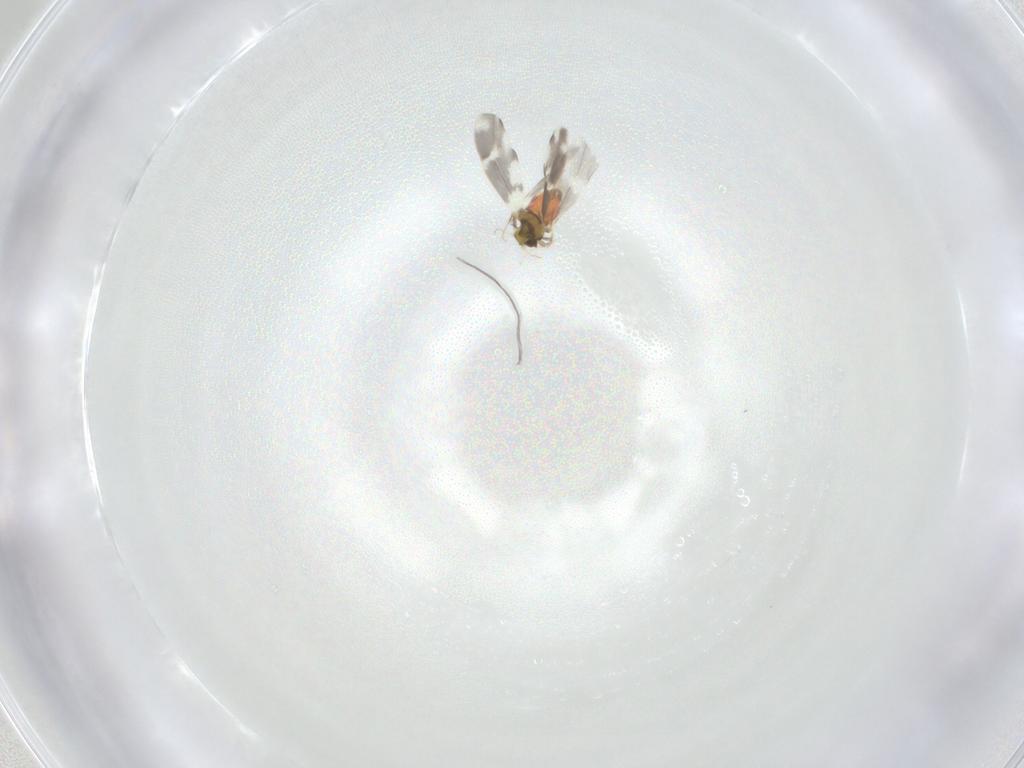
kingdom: Animalia
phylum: Arthropoda
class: Insecta
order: Hemiptera
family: Aleyrodidae
